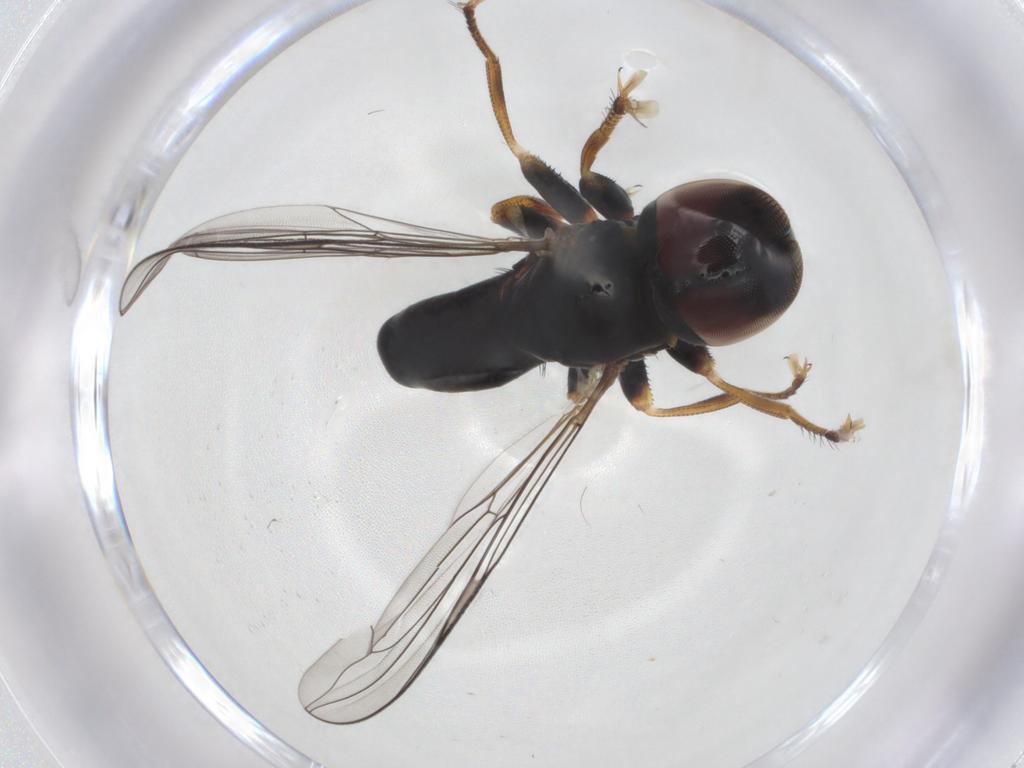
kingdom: Animalia
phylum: Arthropoda
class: Insecta
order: Diptera
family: Pipunculidae
